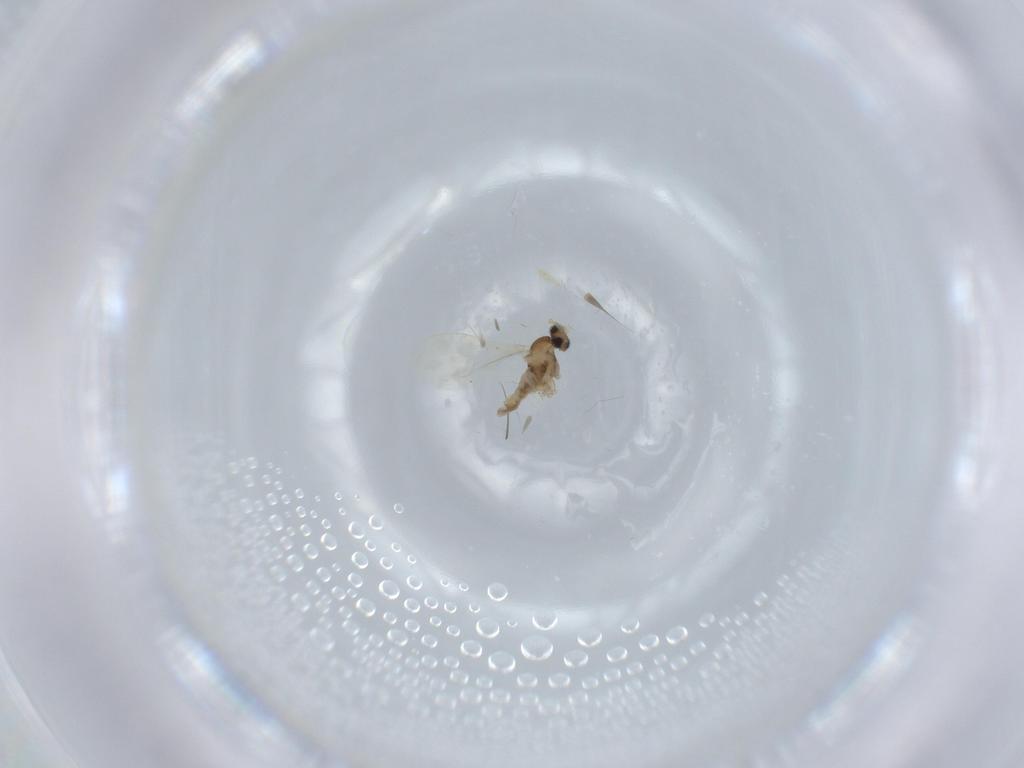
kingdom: Animalia
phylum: Arthropoda
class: Insecta
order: Diptera
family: Cecidomyiidae
